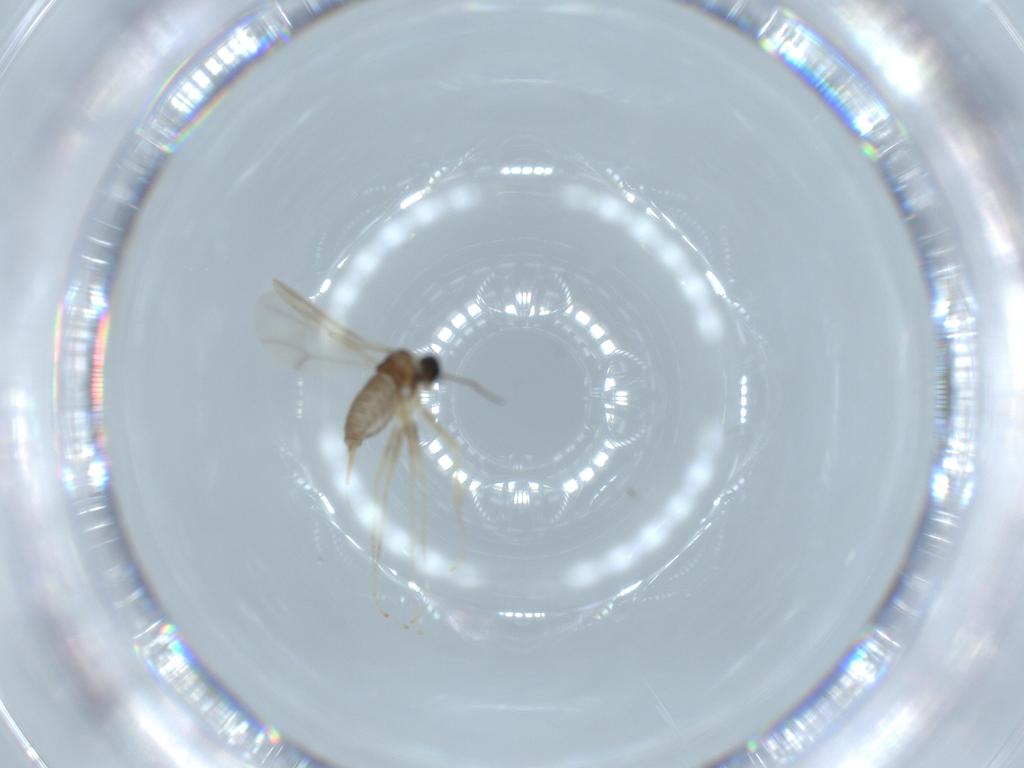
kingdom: Animalia
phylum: Arthropoda
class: Insecta
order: Diptera
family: Cecidomyiidae
